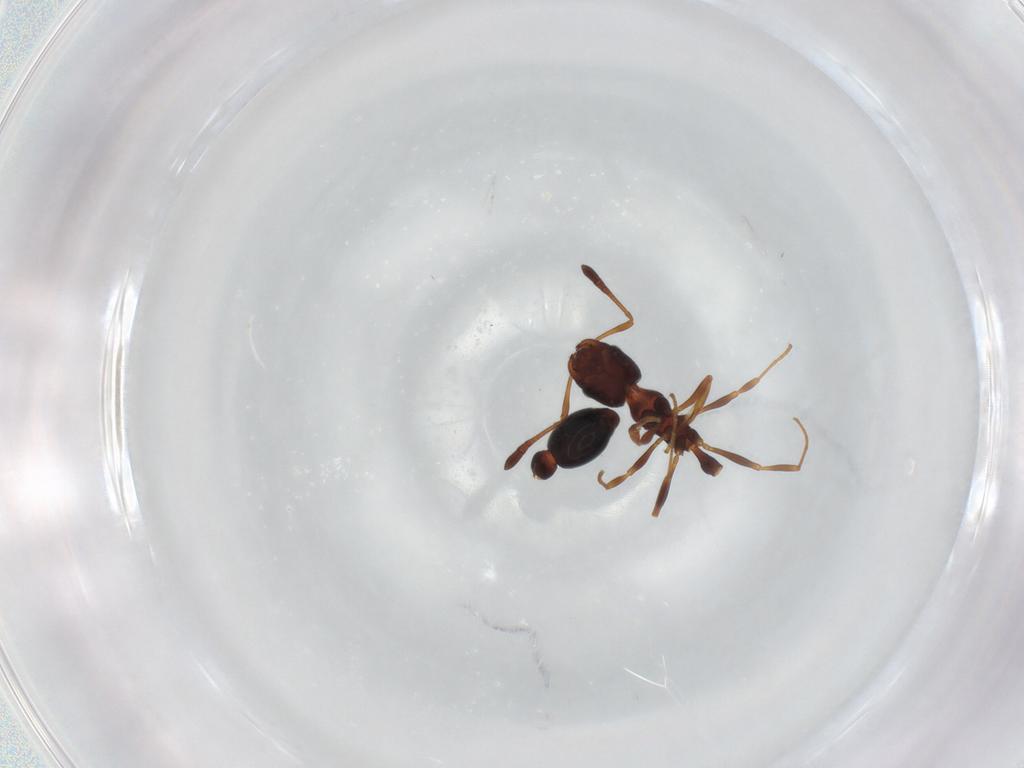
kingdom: Animalia
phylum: Arthropoda
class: Insecta
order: Hymenoptera
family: Formicidae
